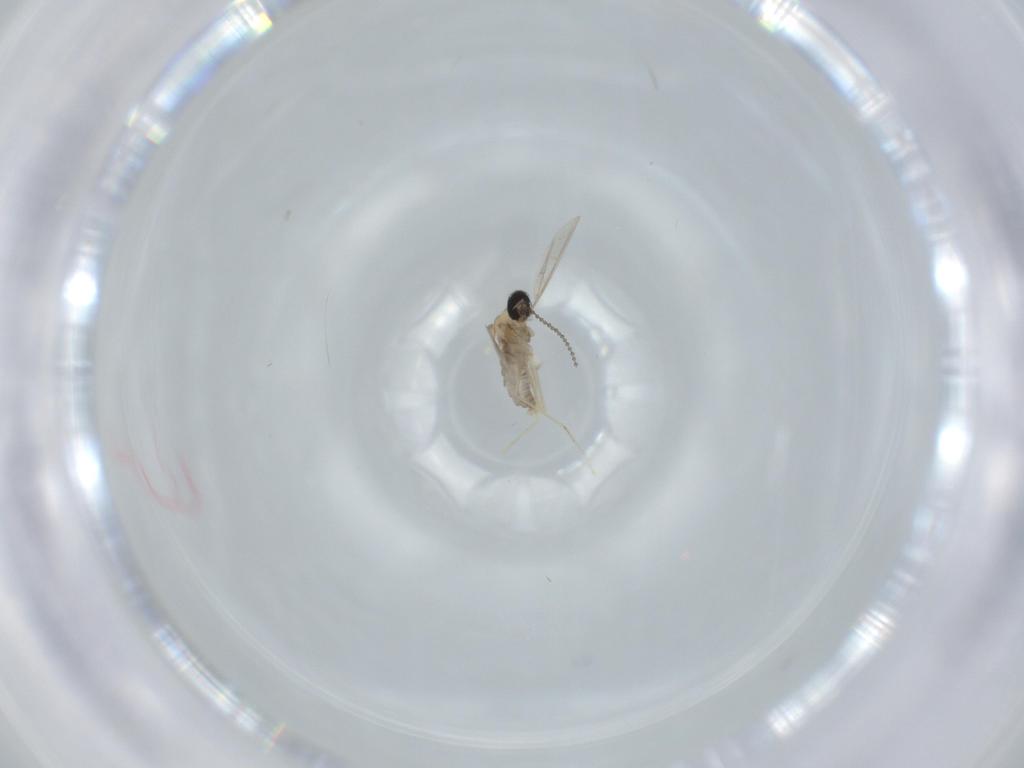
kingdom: Animalia
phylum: Arthropoda
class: Insecta
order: Diptera
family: Cecidomyiidae
